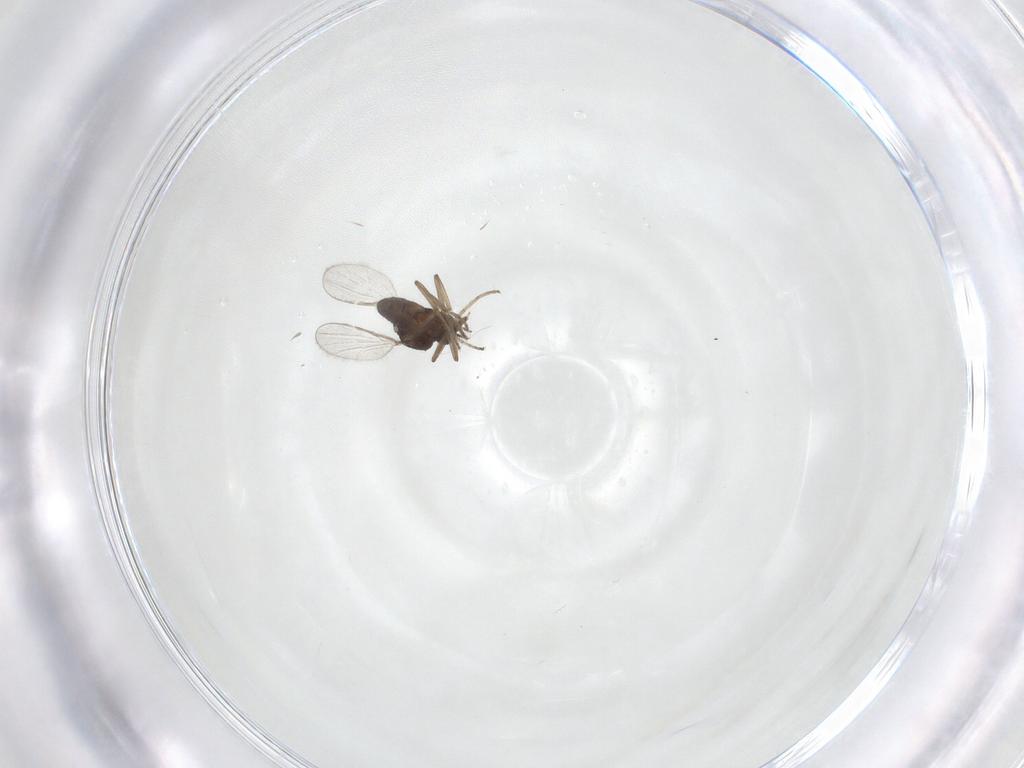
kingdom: Animalia
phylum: Arthropoda
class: Insecta
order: Diptera
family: Ceratopogonidae
